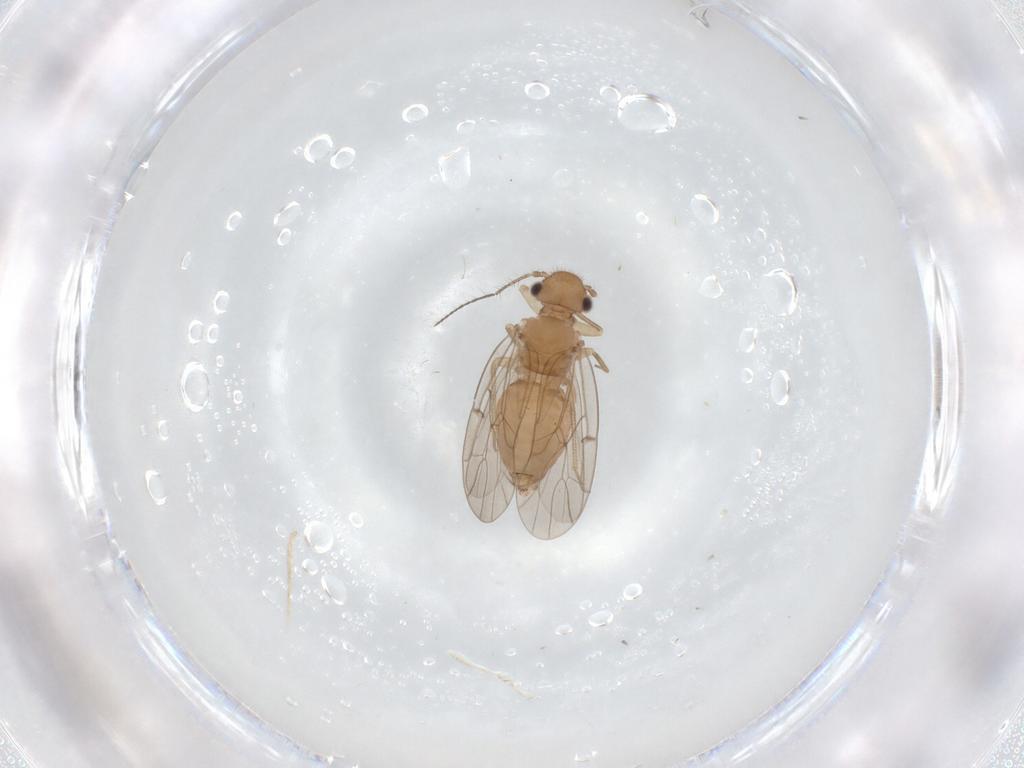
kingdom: Animalia
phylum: Arthropoda
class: Insecta
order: Psocodea
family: Ectopsocidae
